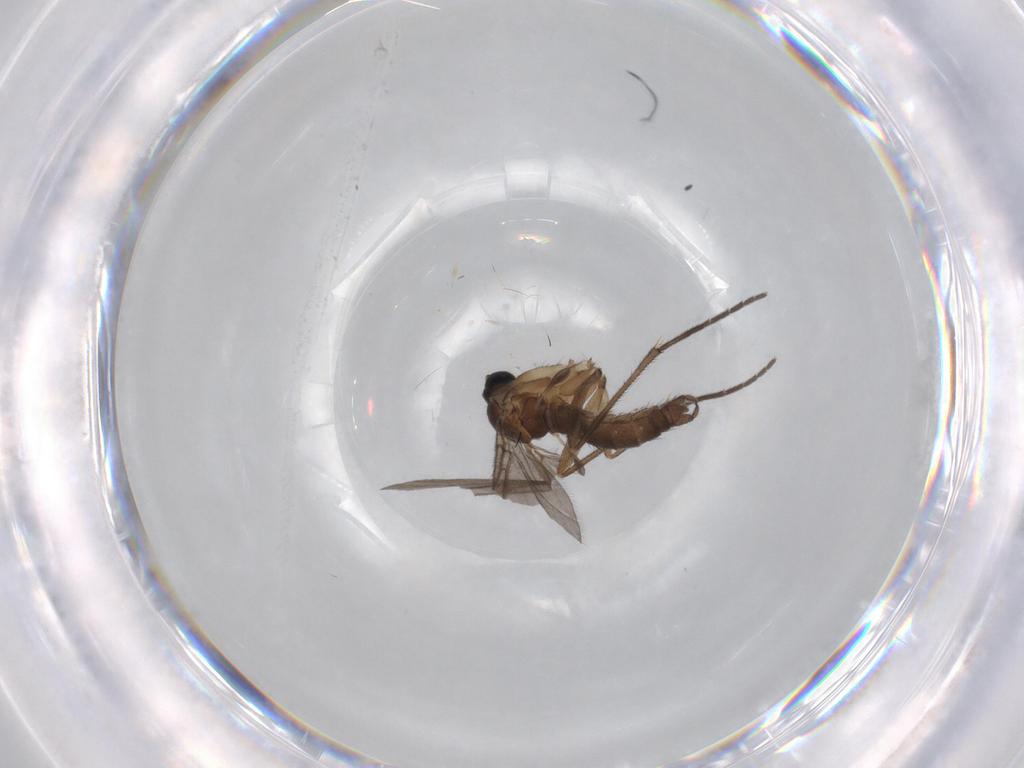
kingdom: Animalia
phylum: Arthropoda
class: Insecta
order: Diptera
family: Sciaridae
